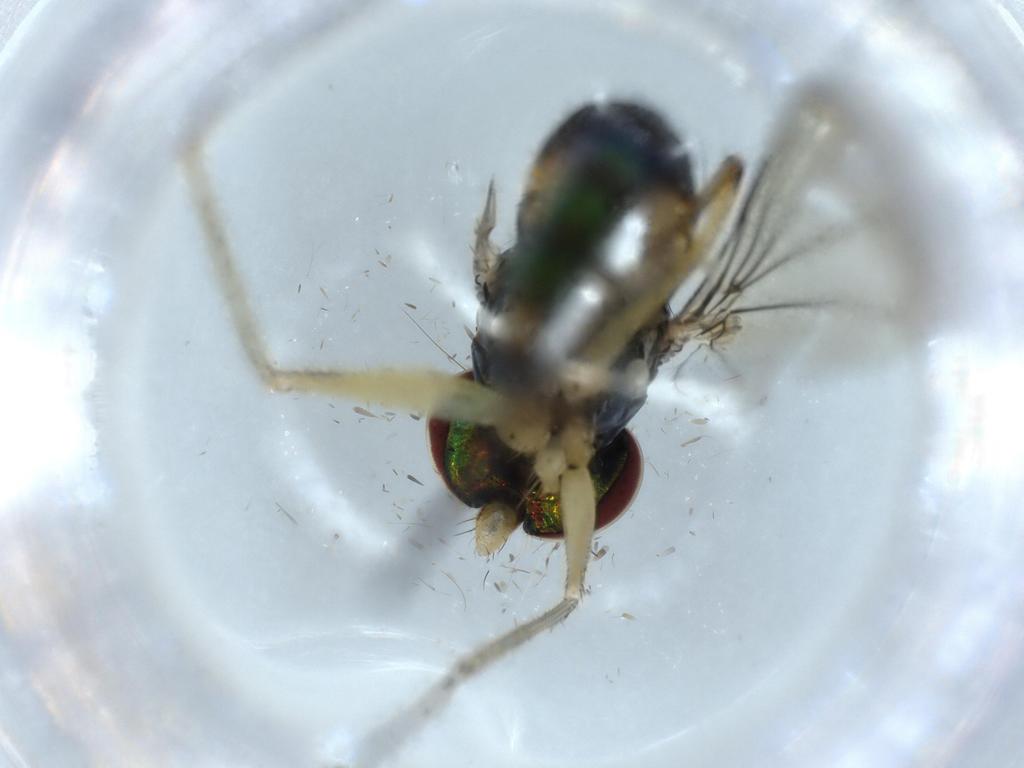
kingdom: Animalia
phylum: Arthropoda
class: Insecta
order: Diptera
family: Dolichopodidae
